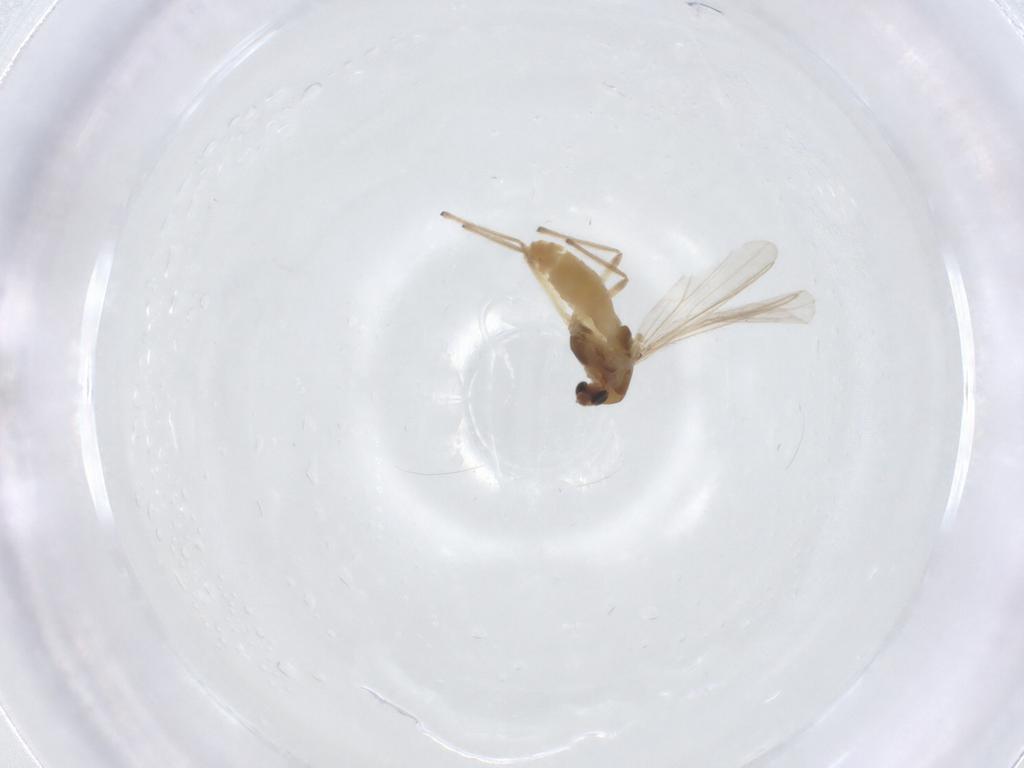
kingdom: Animalia
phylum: Arthropoda
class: Insecta
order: Diptera
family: Chironomidae
